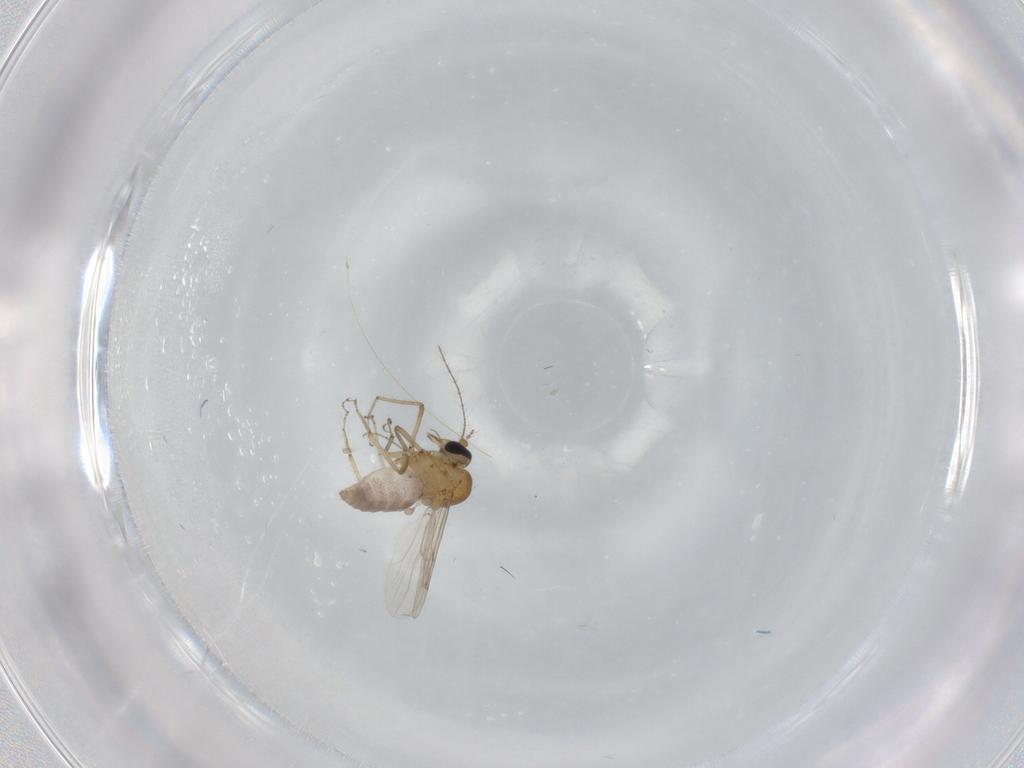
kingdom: Animalia
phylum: Arthropoda
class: Insecta
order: Diptera
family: Ceratopogonidae
